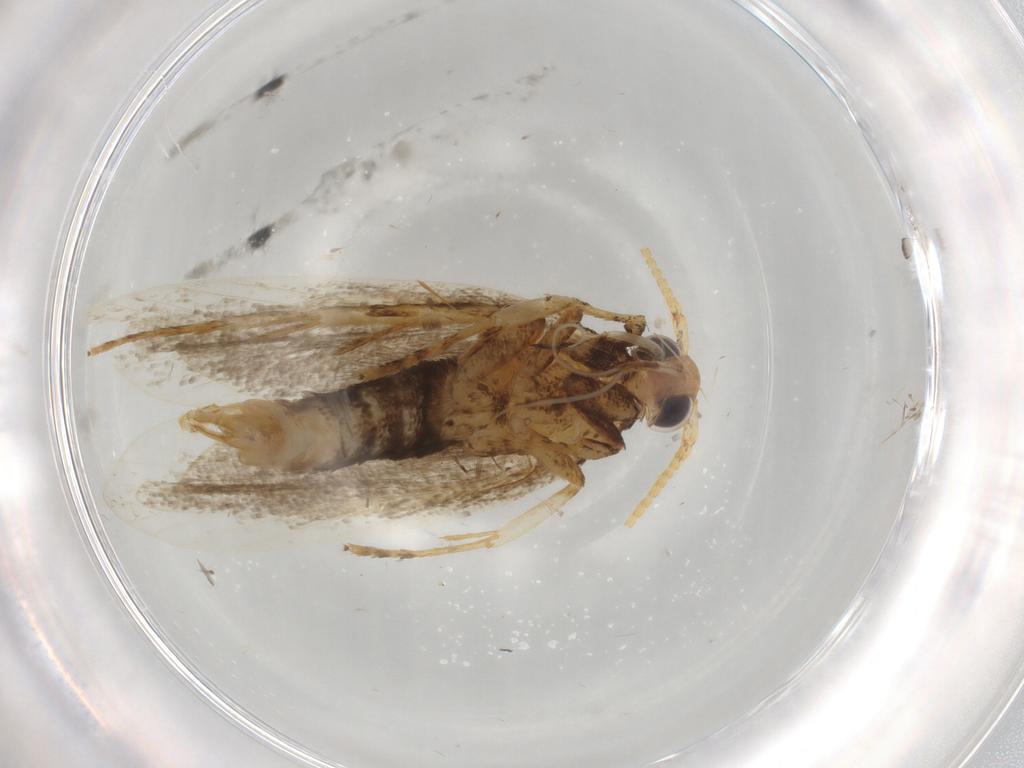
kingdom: Animalia
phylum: Arthropoda
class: Insecta
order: Lepidoptera
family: Lecithoceridae
